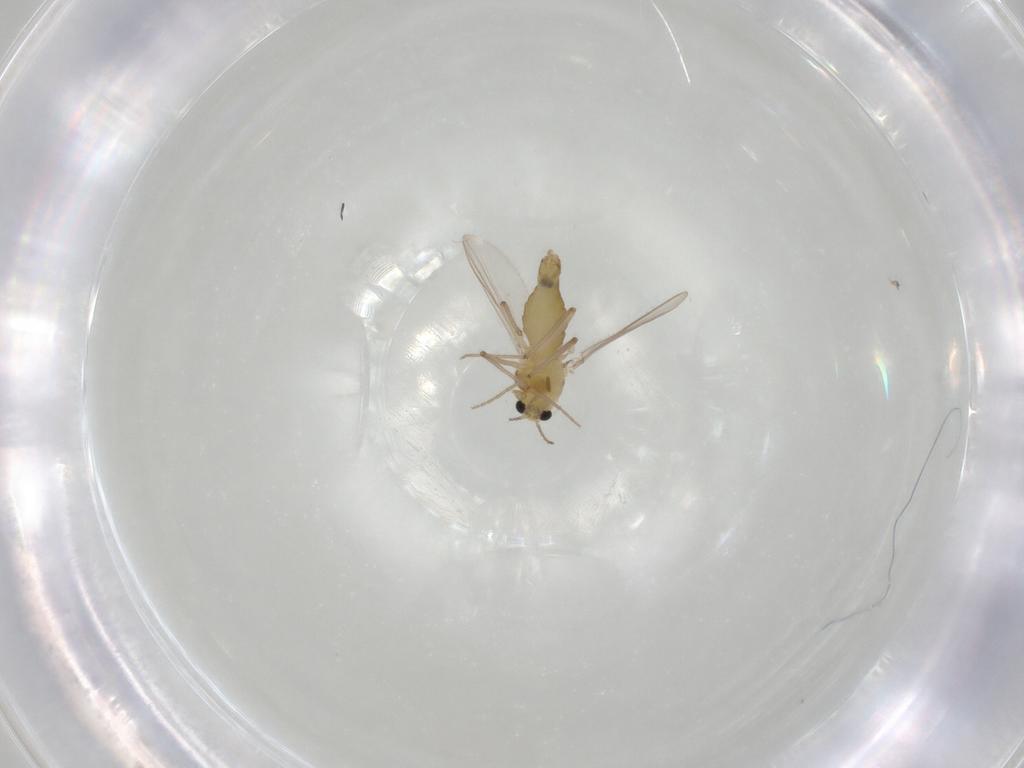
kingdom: Animalia
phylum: Arthropoda
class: Insecta
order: Diptera
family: Chironomidae
